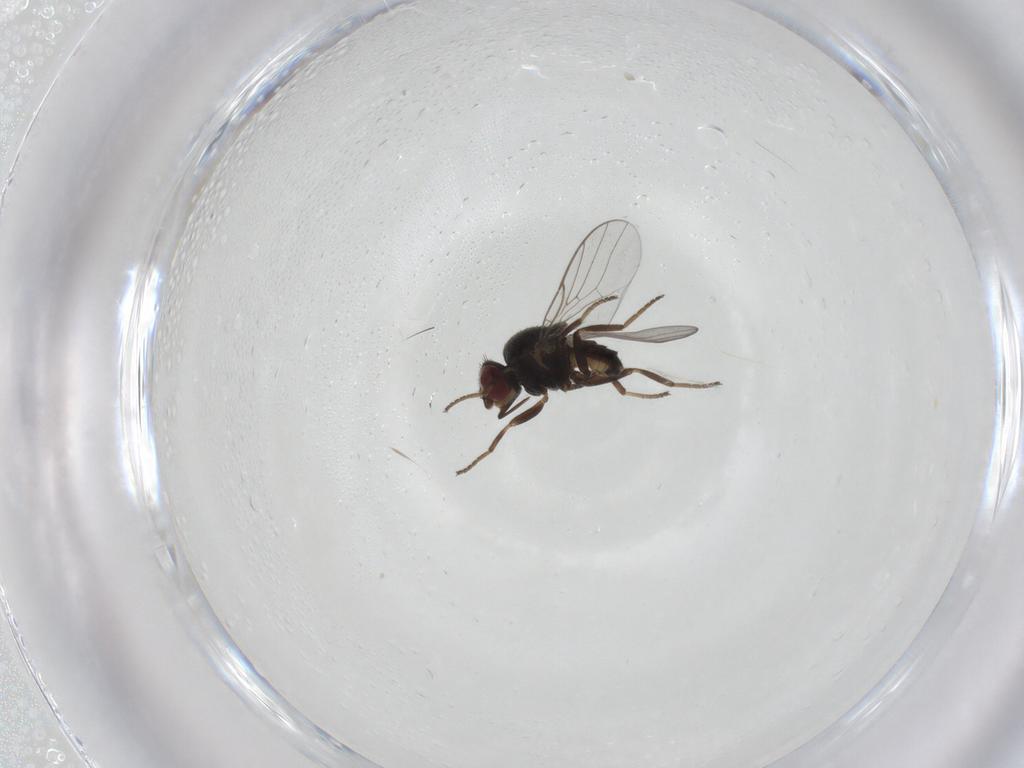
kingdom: Animalia
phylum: Arthropoda
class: Insecta
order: Diptera
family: Chloropidae
